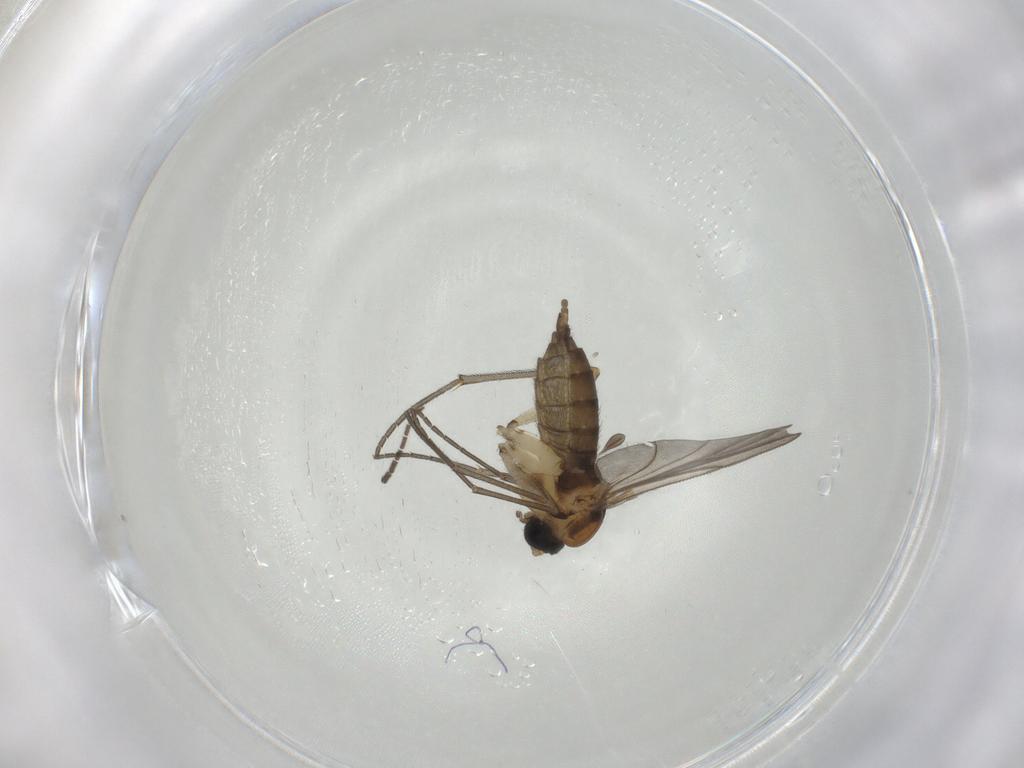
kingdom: Animalia
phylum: Arthropoda
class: Insecta
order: Diptera
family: Sciaridae
